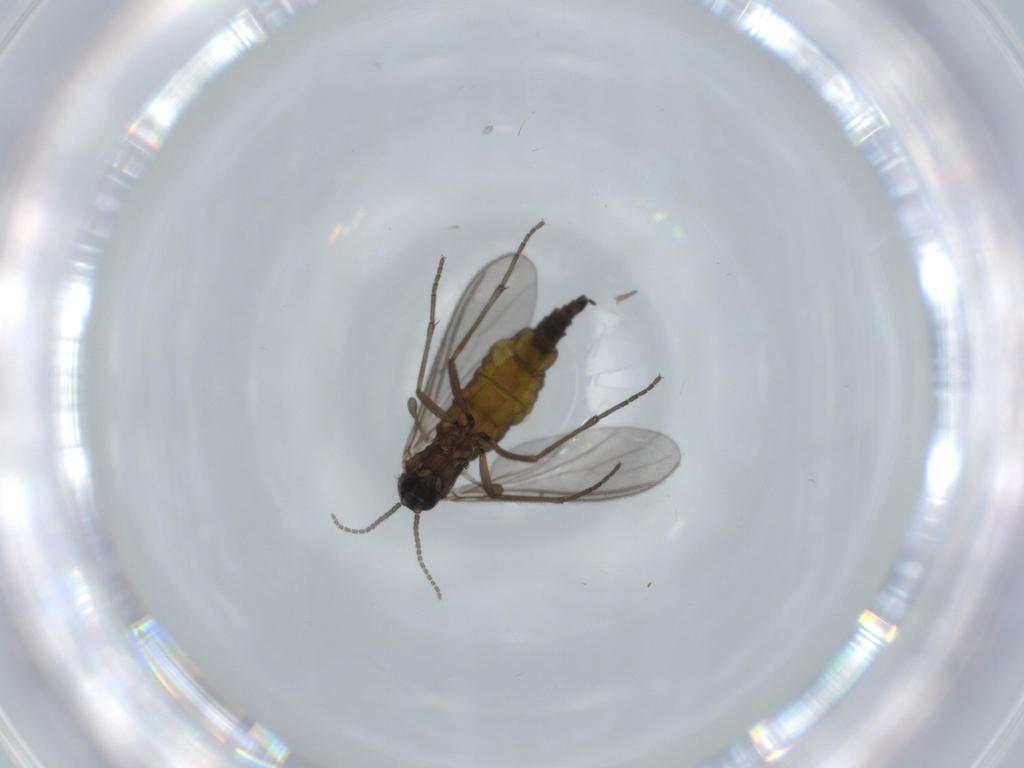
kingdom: Animalia
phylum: Arthropoda
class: Insecta
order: Diptera
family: Sciaridae
